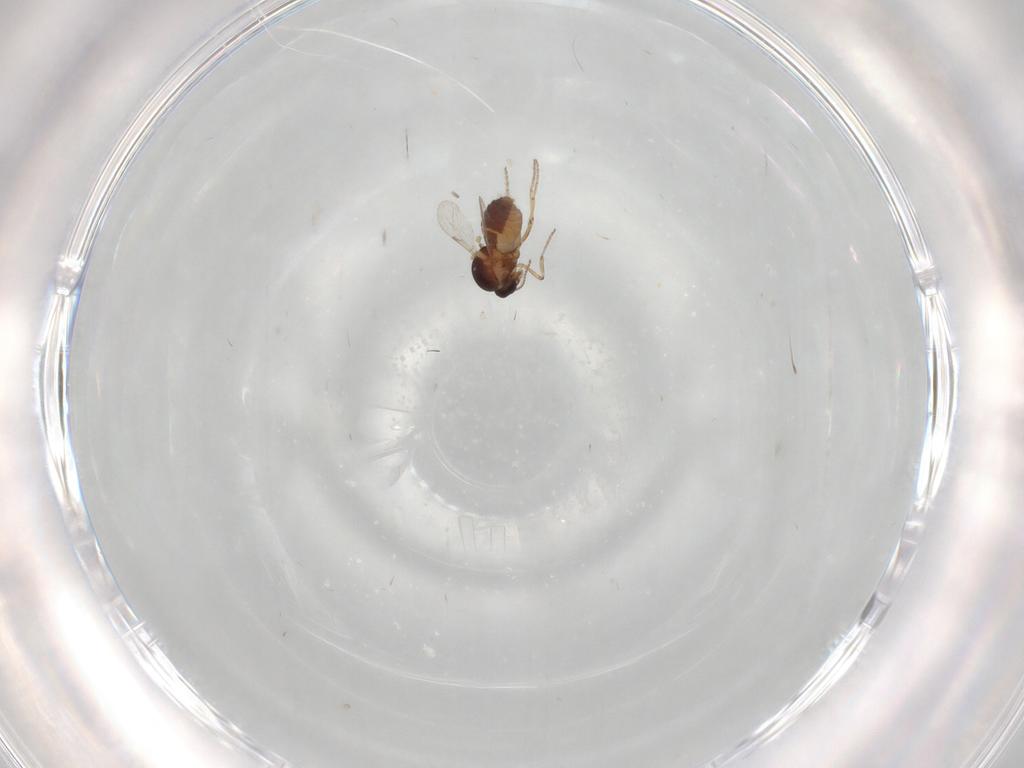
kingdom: Animalia
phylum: Arthropoda
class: Insecta
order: Diptera
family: Ceratopogonidae
